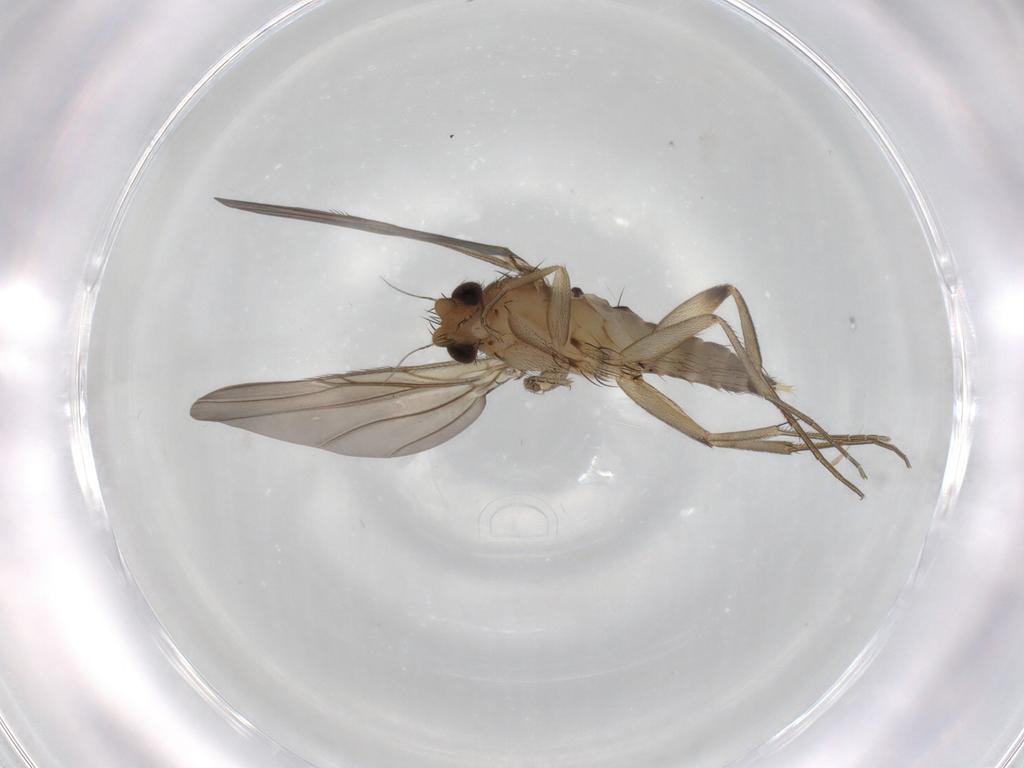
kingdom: Animalia
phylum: Arthropoda
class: Insecta
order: Diptera
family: Phoridae
